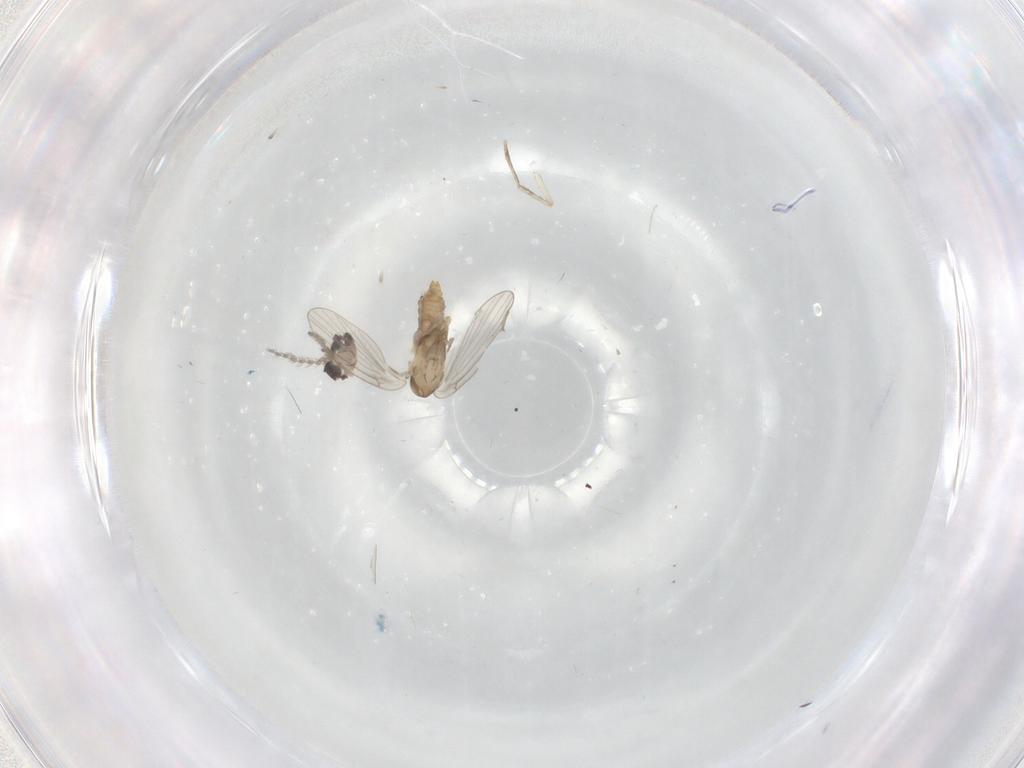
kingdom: Animalia
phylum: Arthropoda
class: Insecta
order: Diptera
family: Psychodidae
